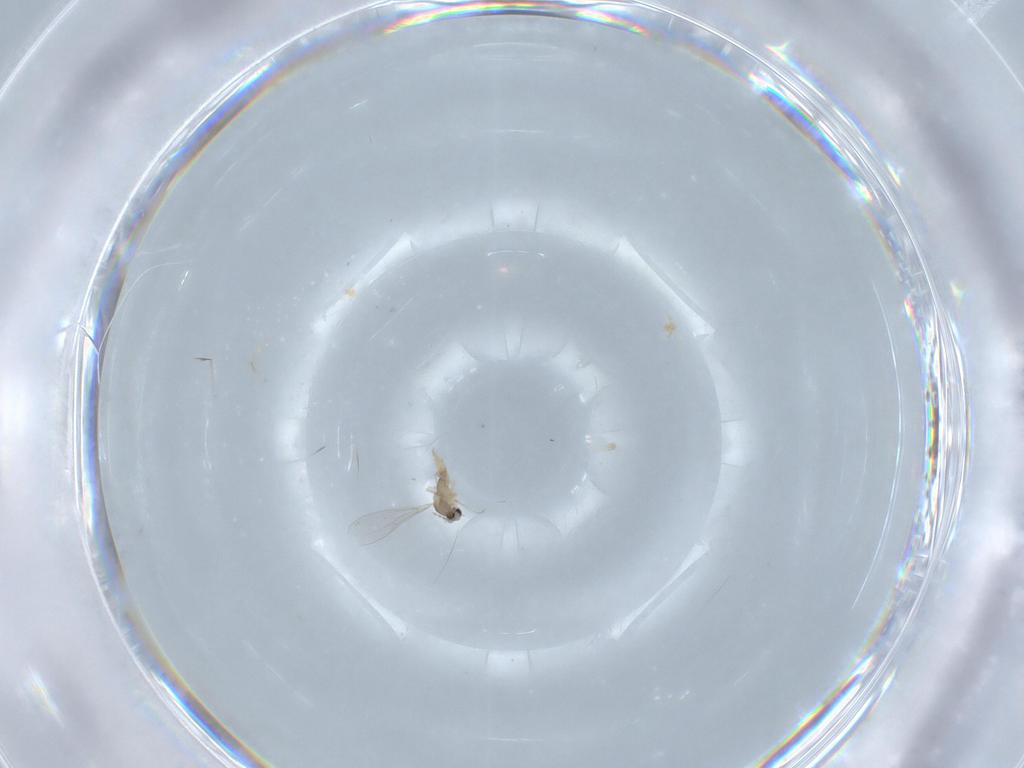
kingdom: Animalia
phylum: Arthropoda
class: Insecta
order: Diptera
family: Cecidomyiidae
